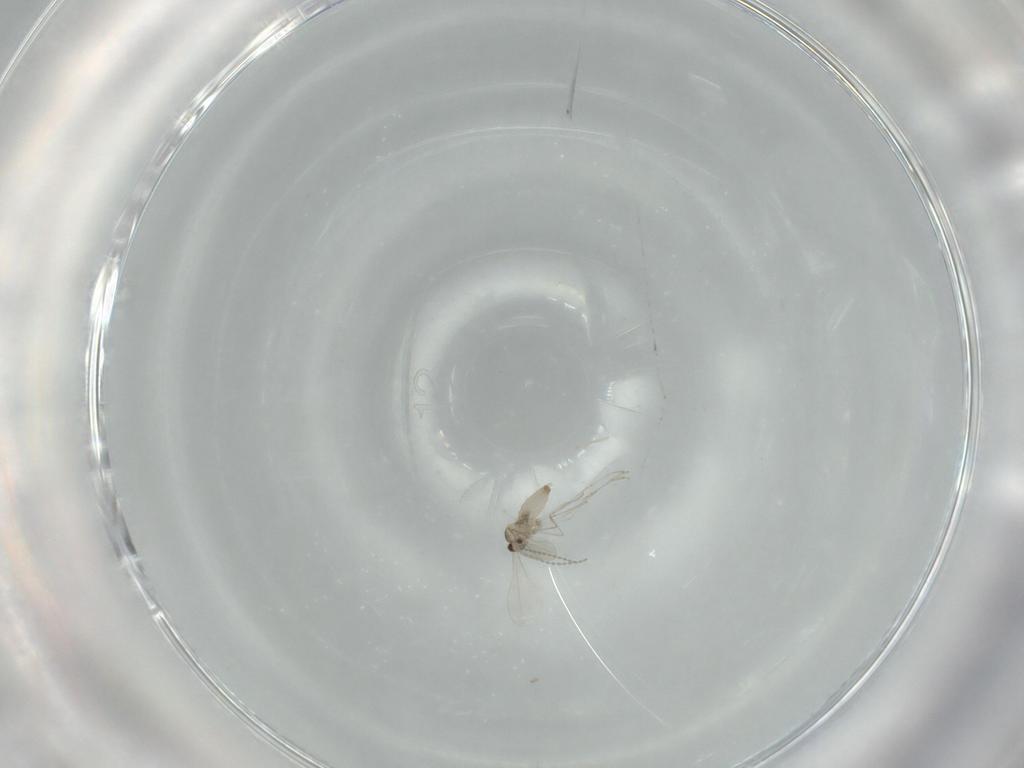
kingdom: Animalia
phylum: Arthropoda
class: Insecta
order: Diptera
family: Cecidomyiidae
